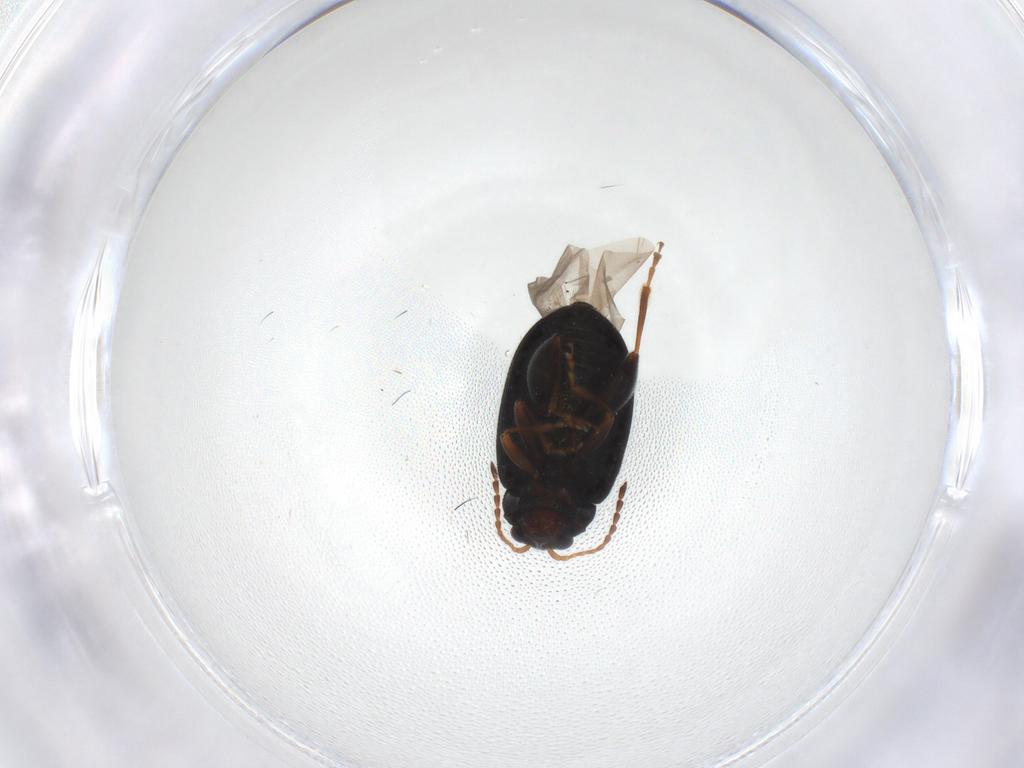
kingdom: Animalia
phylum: Arthropoda
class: Insecta
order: Coleoptera
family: Chrysomelidae
